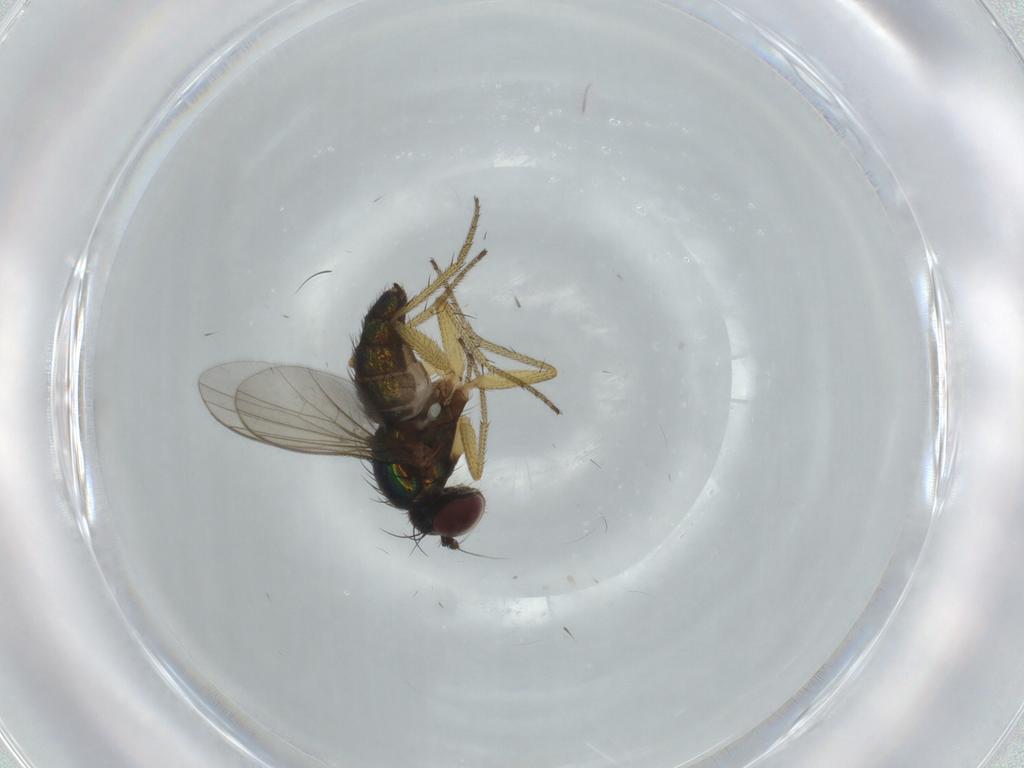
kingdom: Animalia
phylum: Arthropoda
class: Insecta
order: Diptera
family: Dolichopodidae
